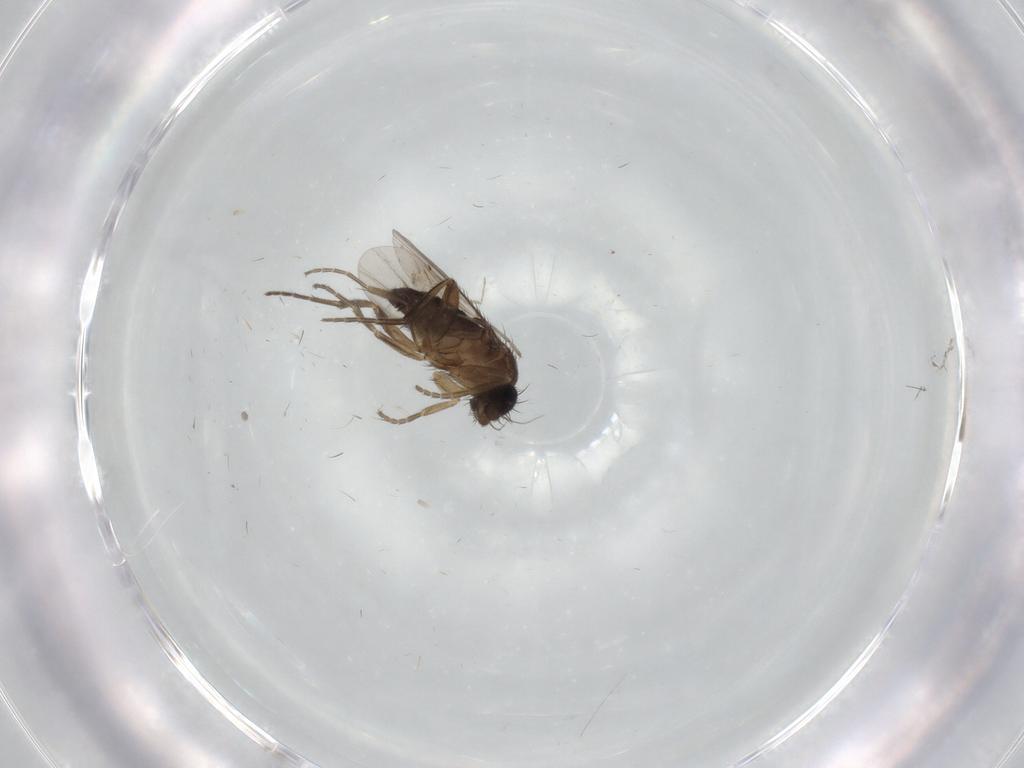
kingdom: Animalia
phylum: Arthropoda
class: Insecta
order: Diptera
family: Phoridae
